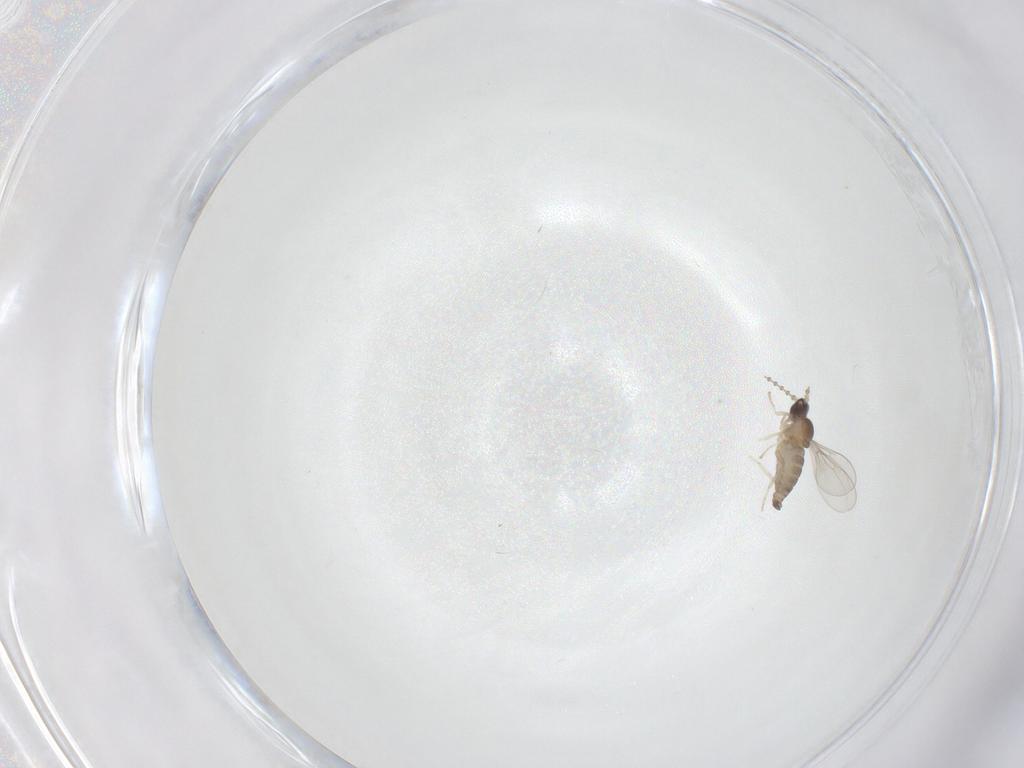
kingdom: Animalia
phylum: Arthropoda
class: Insecta
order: Diptera
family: Cecidomyiidae
